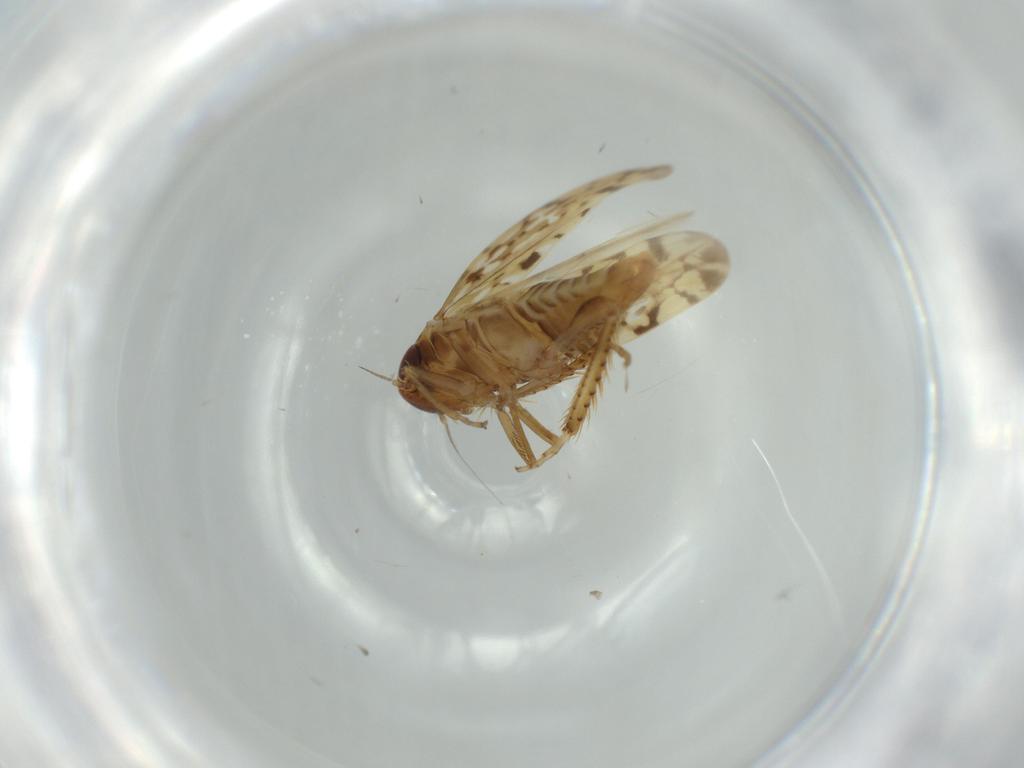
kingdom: Animalia
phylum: Arthropoda
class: Insecta
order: Hemiptera
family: Cicadellidae
